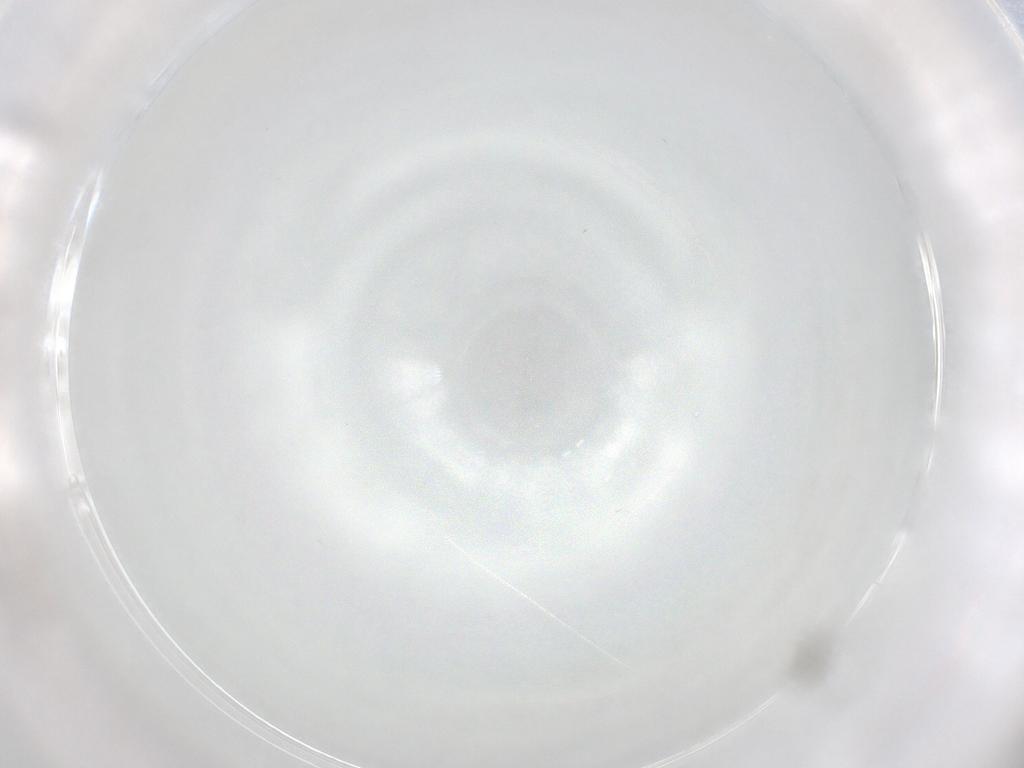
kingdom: Animalia
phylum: Arthropoda
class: Insecta
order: Diptera
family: Cecidomyiidae
